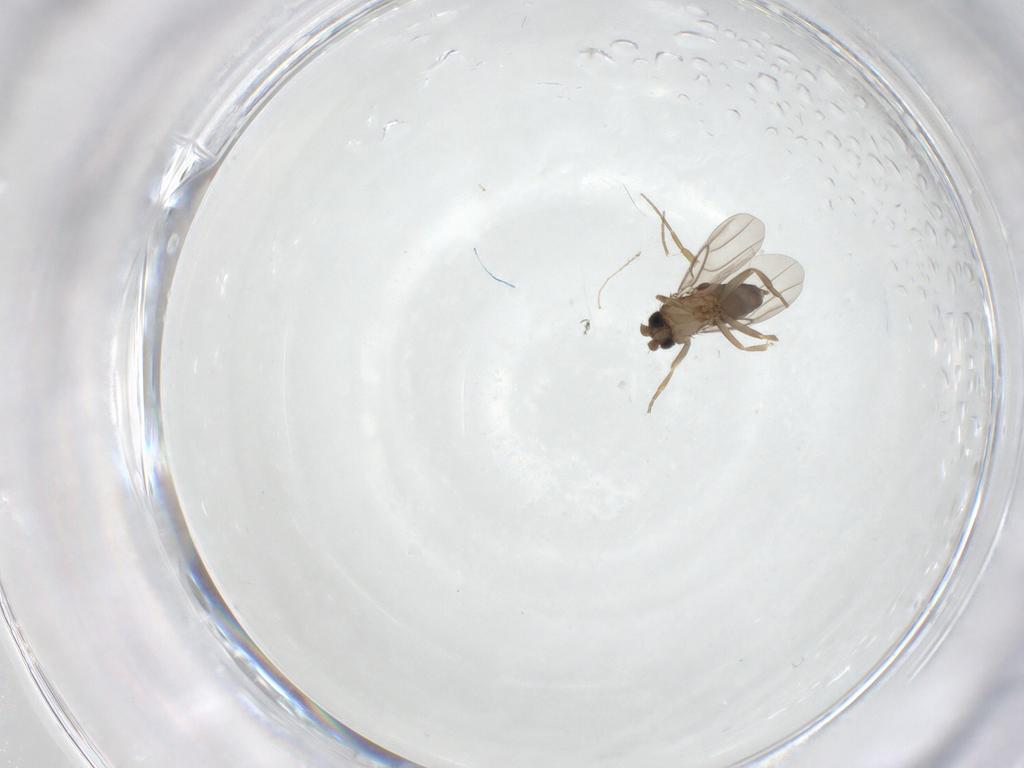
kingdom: Animalia
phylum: Arthropoda
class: Insecta
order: Diptera
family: Phoridae
